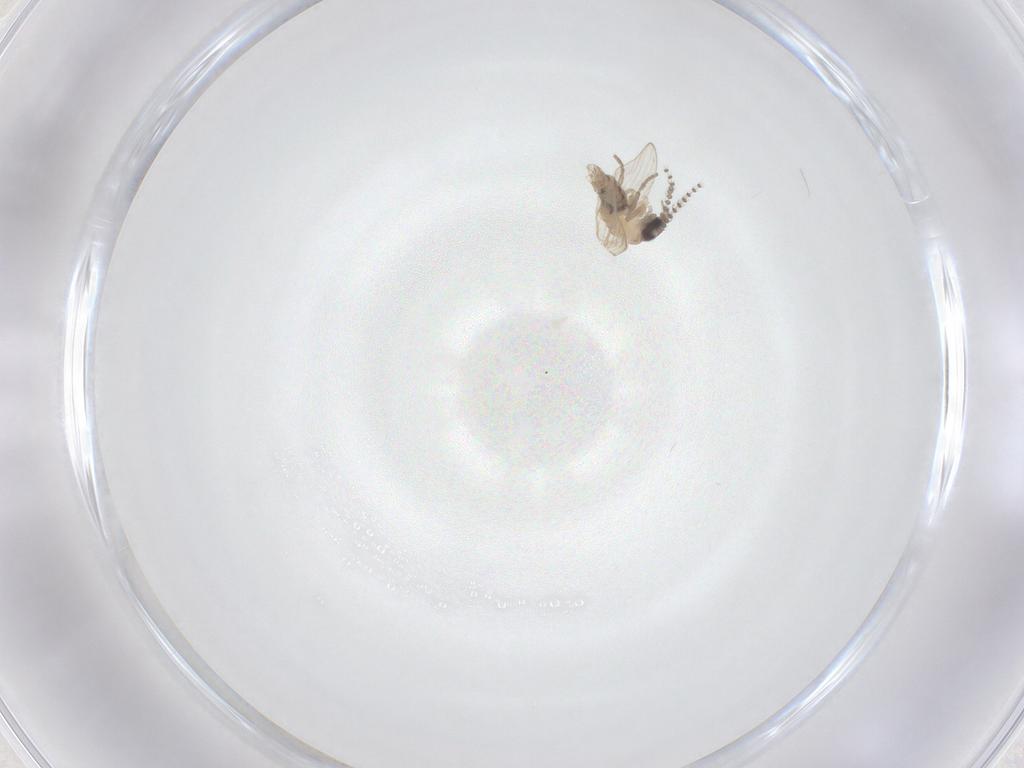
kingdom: Animalia
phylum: Arthropoda
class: Insecta
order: Diptera
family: Psychodidae
